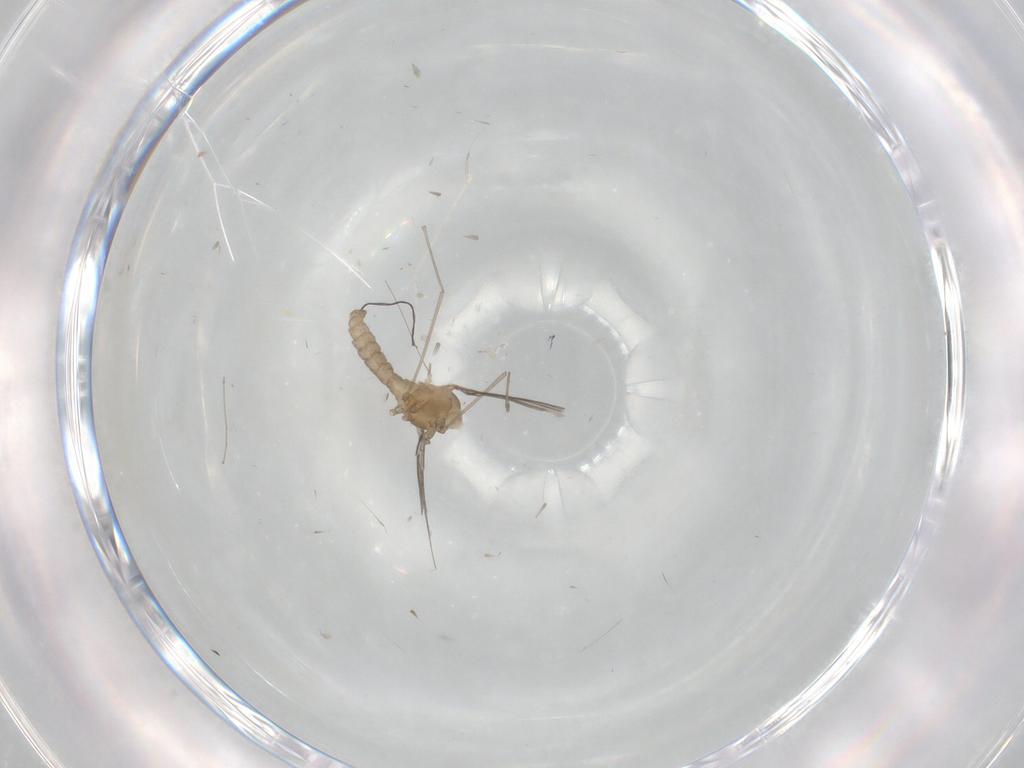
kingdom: Animalia
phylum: Arthropoda
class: Insecta
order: Diptera
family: Cecidomyiidae
